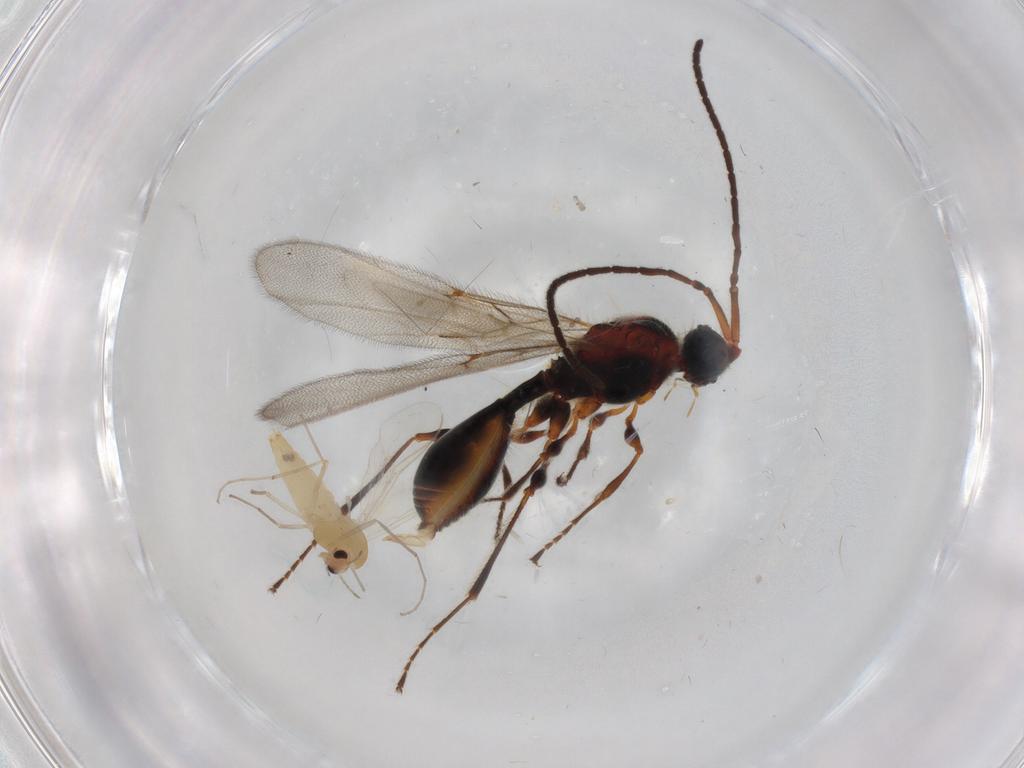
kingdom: Animalia
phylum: Arthropoda
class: Insecta
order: Diptera
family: Chironomidae
